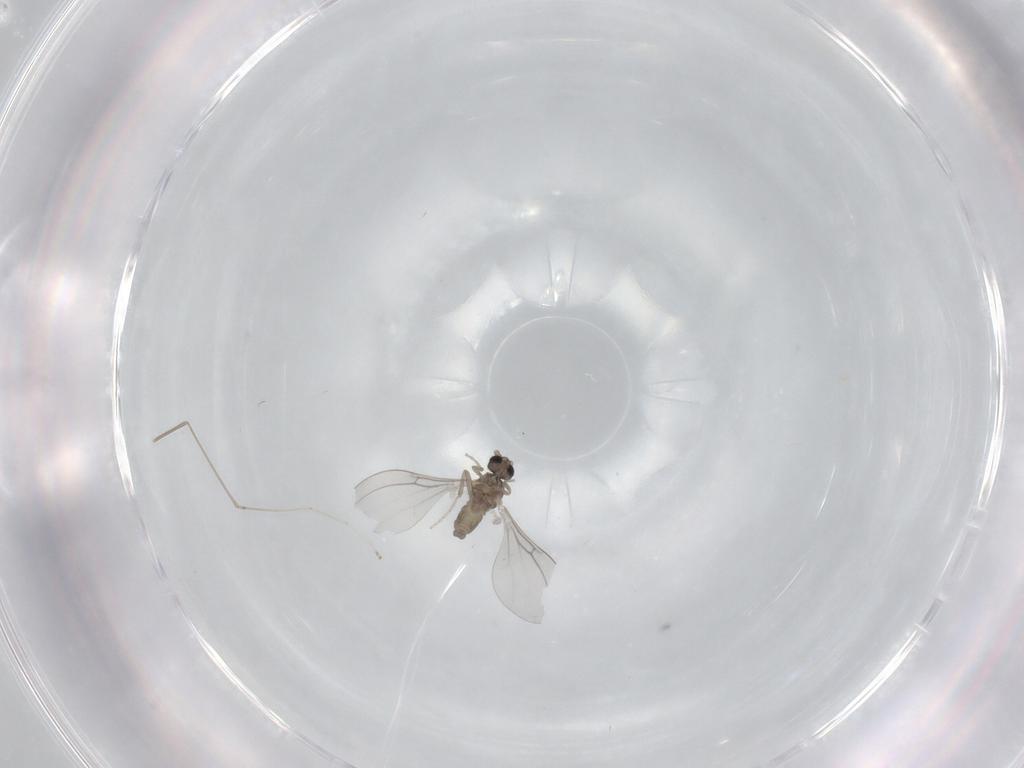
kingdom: Animalia
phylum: Arthropoda
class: Insecta
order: Diptera
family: Cecidomyiidae
